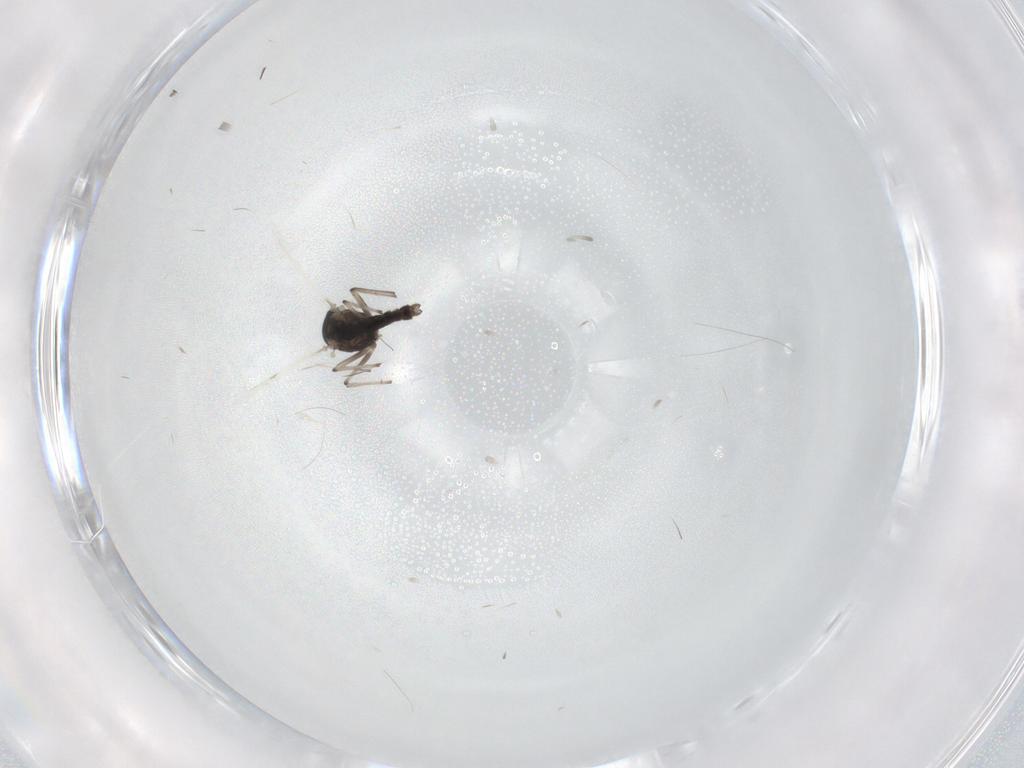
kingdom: Animalia
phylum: Arthropoda
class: Insecta
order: Diptera
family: Chironomidae
